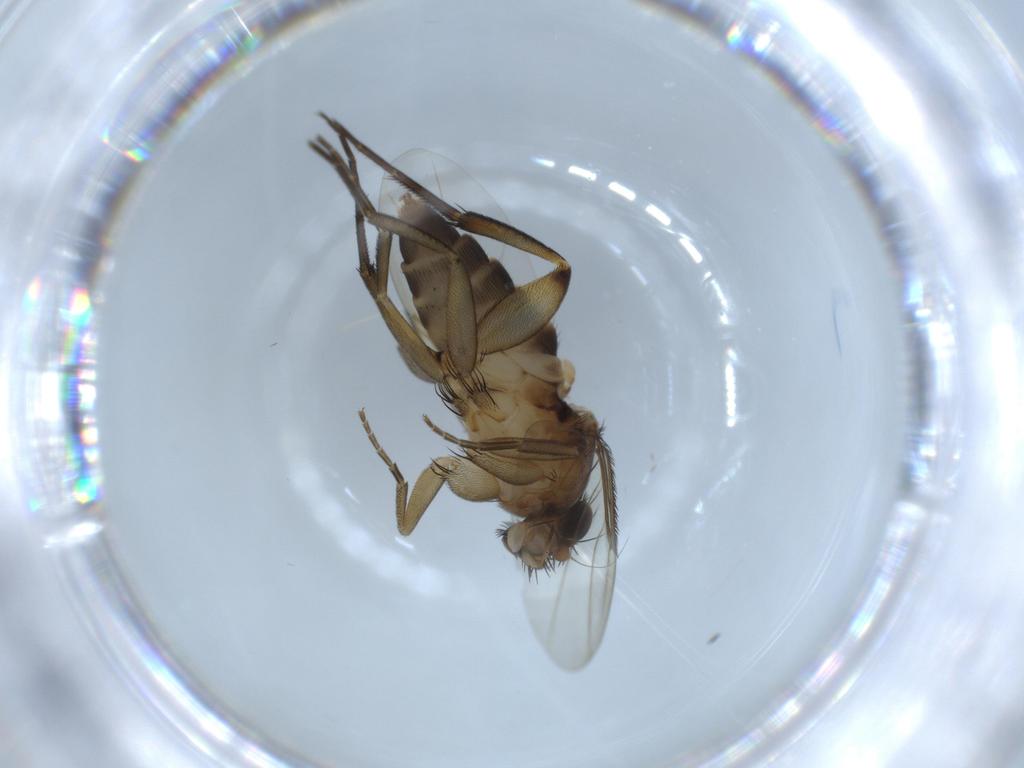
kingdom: Animalia
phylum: Arthropoda
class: Insecta
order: Diptera
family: Phoridae
